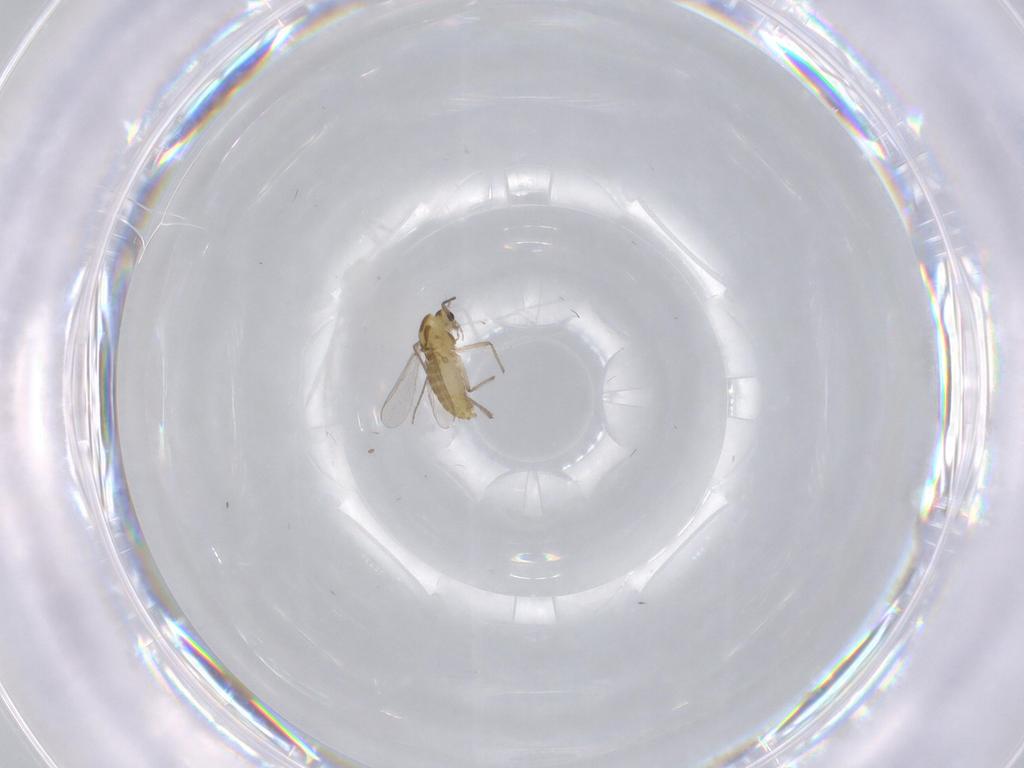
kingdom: Animalia
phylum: Arthropoda
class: Insecta
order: Diptera
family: Chironomidae
